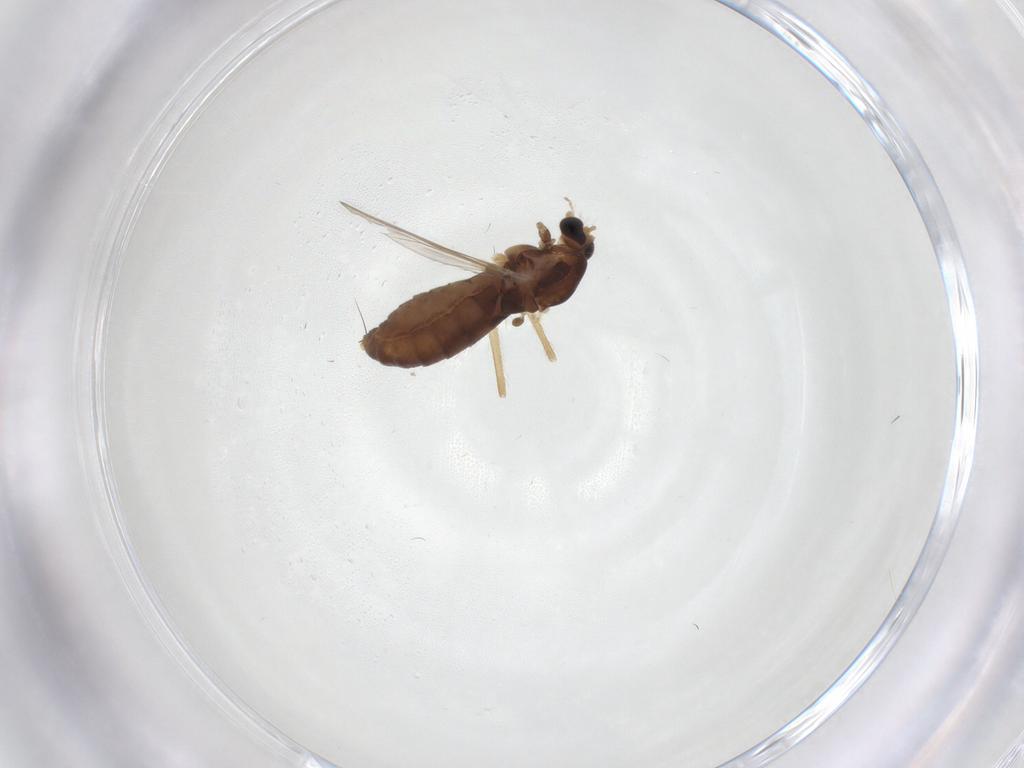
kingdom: Animalia
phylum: Arthropoda
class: Insecta
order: Diptera
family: Chironomidae
